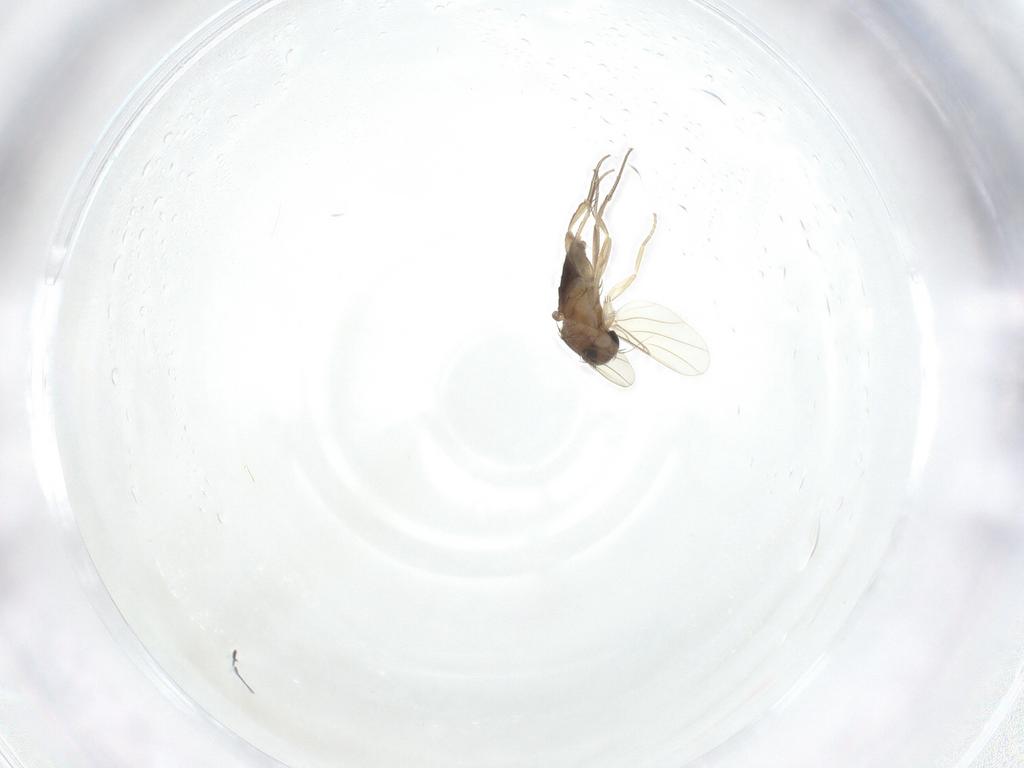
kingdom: Animalia
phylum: Arthropoda
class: Insecta
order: Diptera
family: Phoridae
